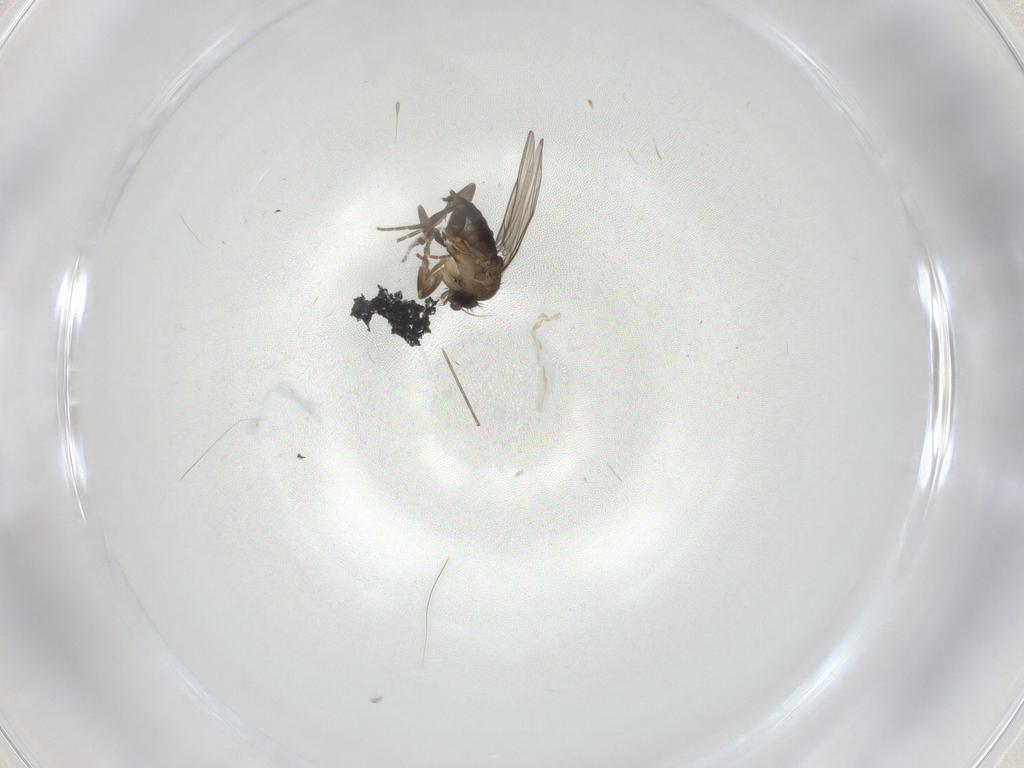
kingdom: Animalia
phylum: Arthropoda
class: Insecta
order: Diptera
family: Phoridae
